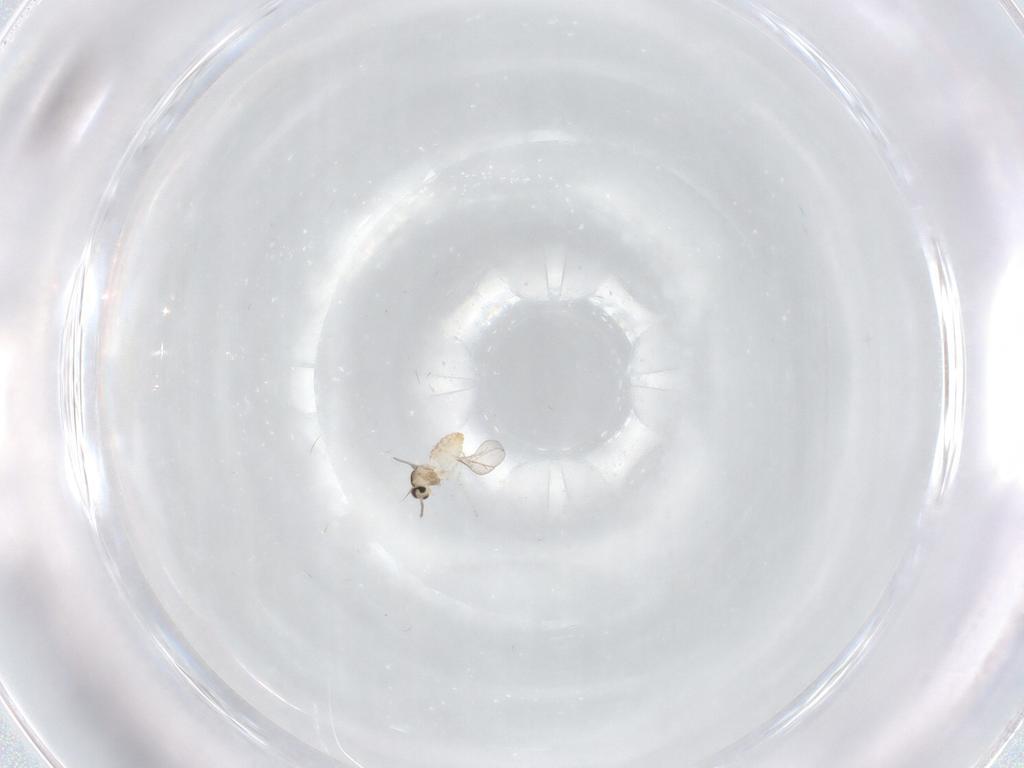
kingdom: Animalia
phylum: Arthropoda
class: Insecta
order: Diptera
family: Cecidomyiidae
